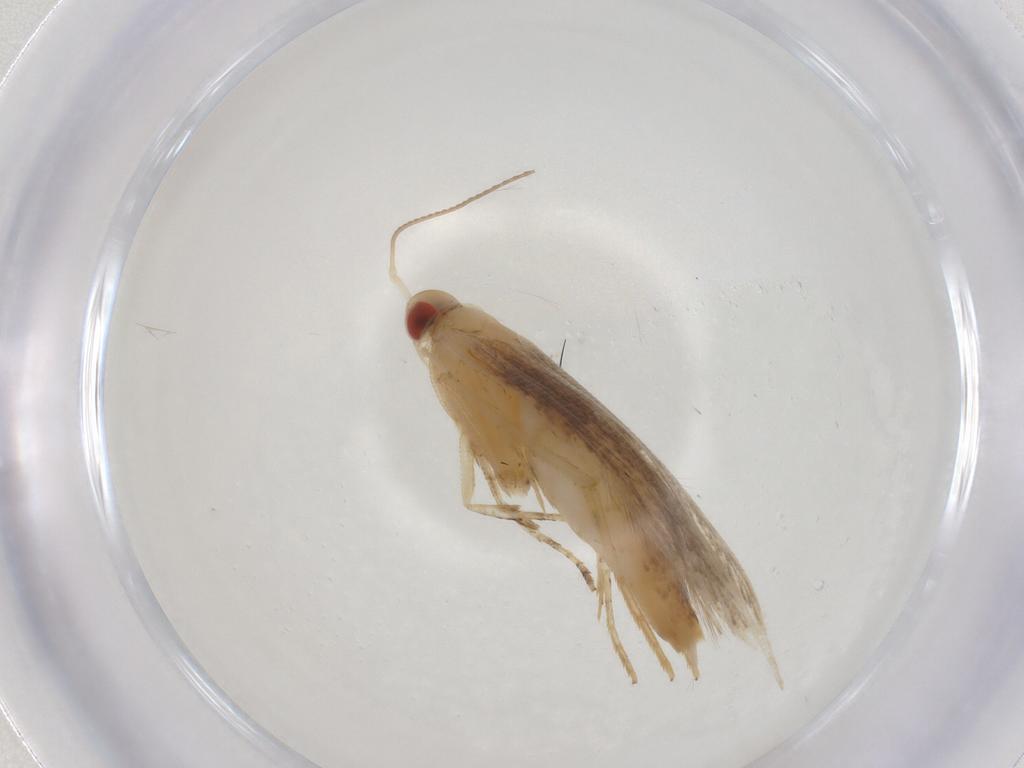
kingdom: Animalia
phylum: Arthropoda
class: Insecta
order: Lepidoptera
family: Cosmopterigidae
